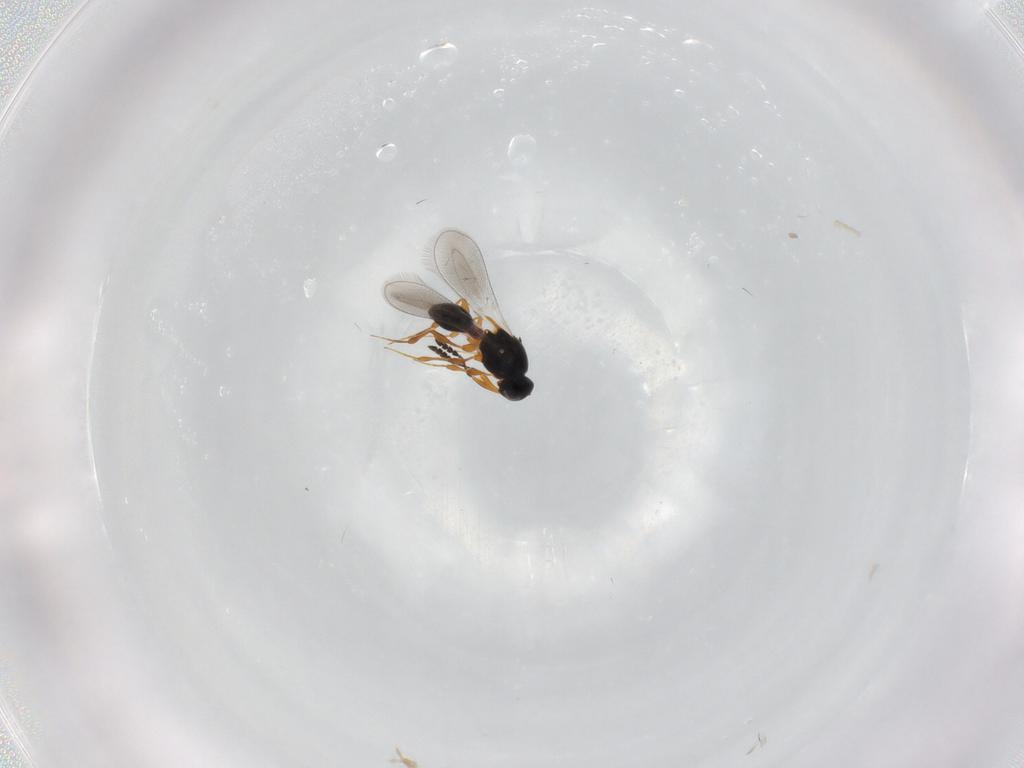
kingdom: Animalia
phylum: Arthropoda
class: Insecta
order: Hymenoptera
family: Platygastridae
